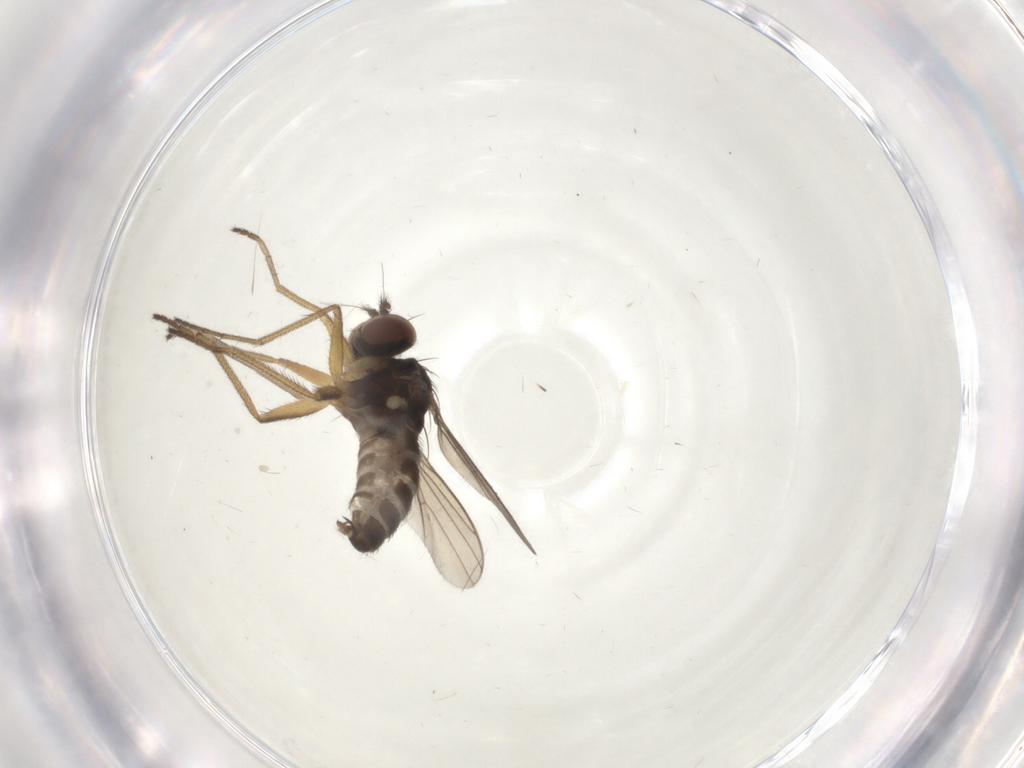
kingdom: Animalia
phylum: Arthropoda
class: Insecta
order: Diptera
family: Dolichopodidae
